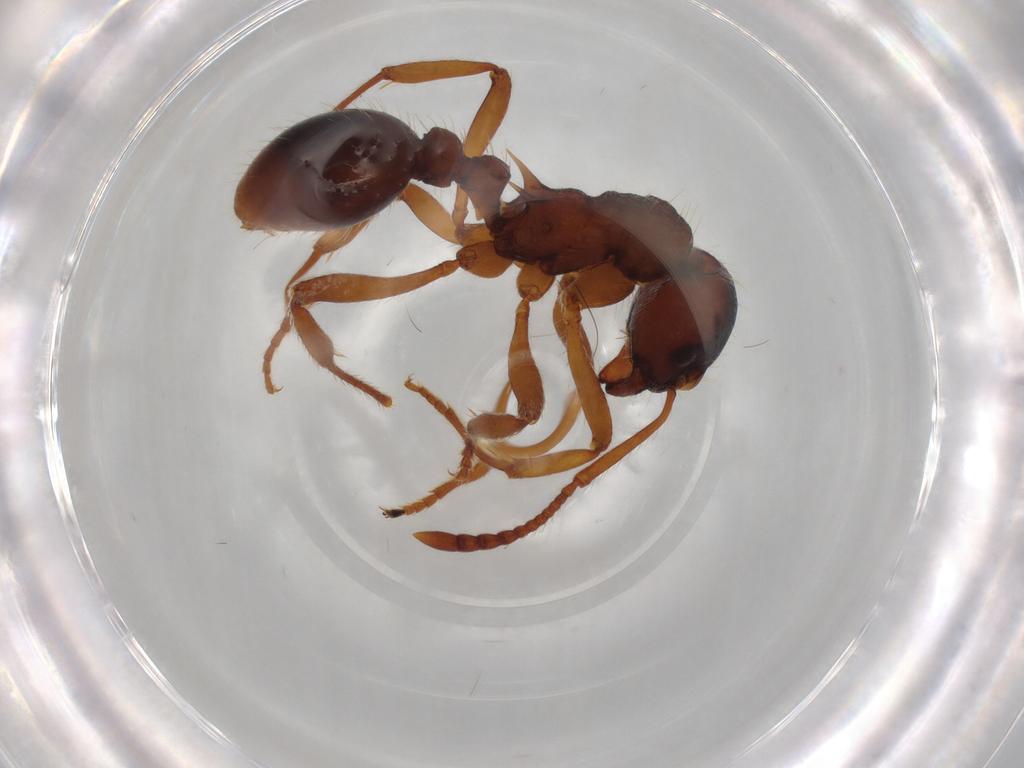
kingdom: Animalia
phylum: Arthropoda
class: Insecta
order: Hymenoptera
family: Formicidae
